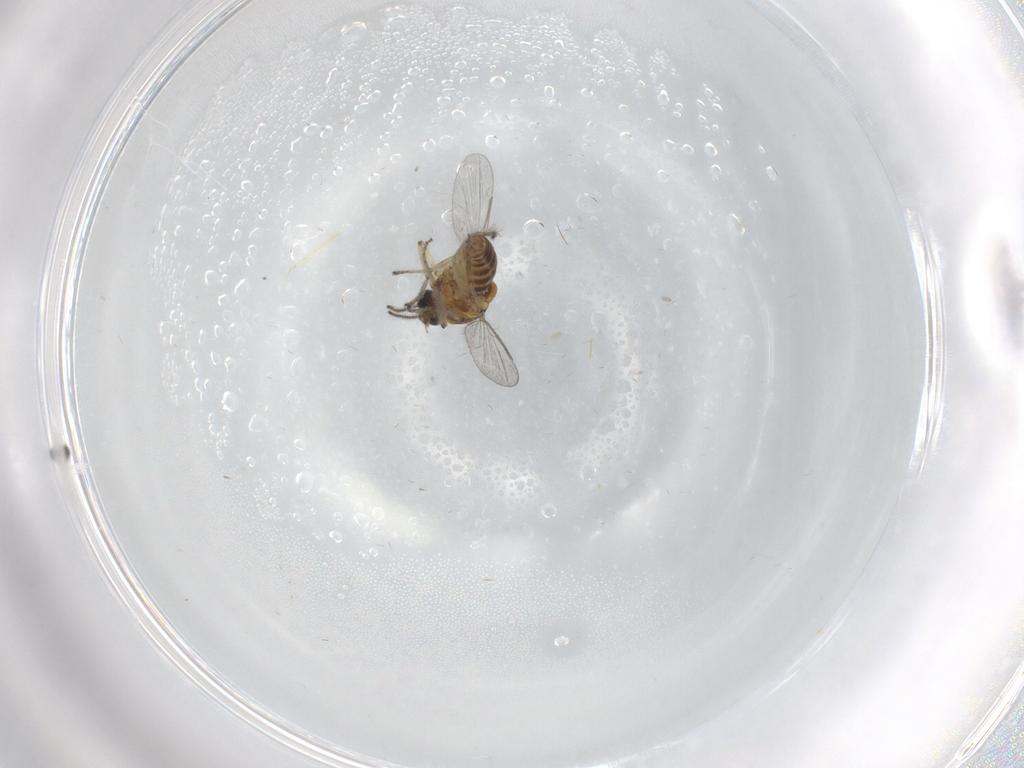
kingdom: Animalia
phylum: Arthropoda
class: Insecta
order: Diptera
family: Ceratopogonidae
